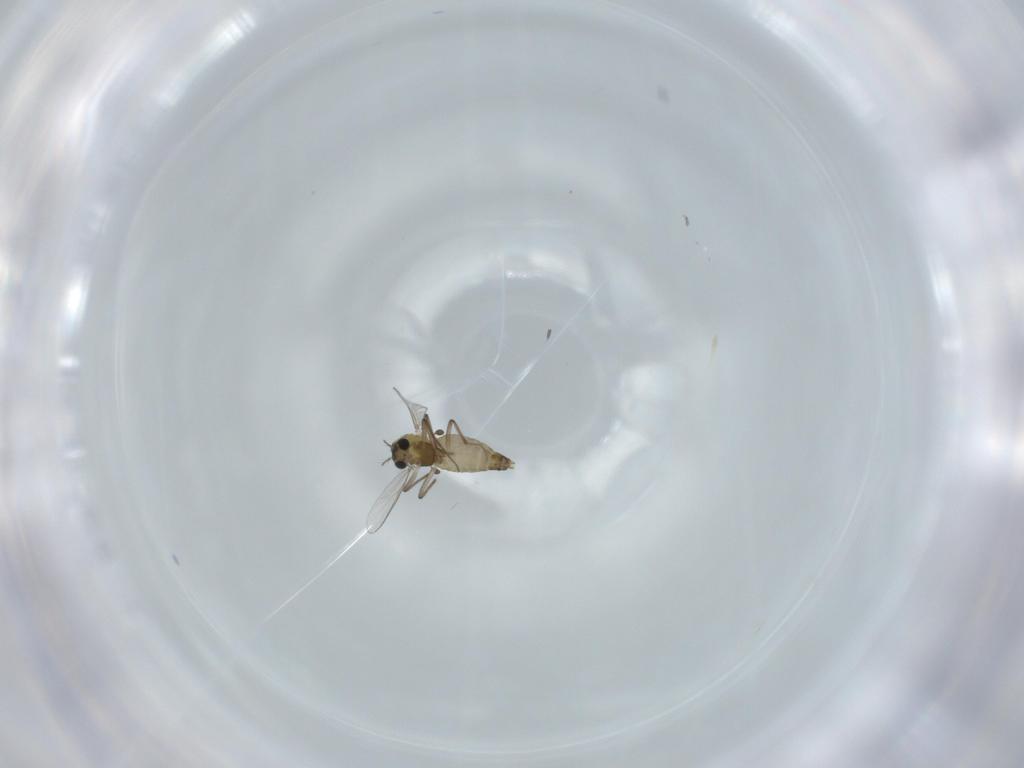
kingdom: Animalia
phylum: Arthropoda
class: Insecta
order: Diptera
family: Chironomidae
